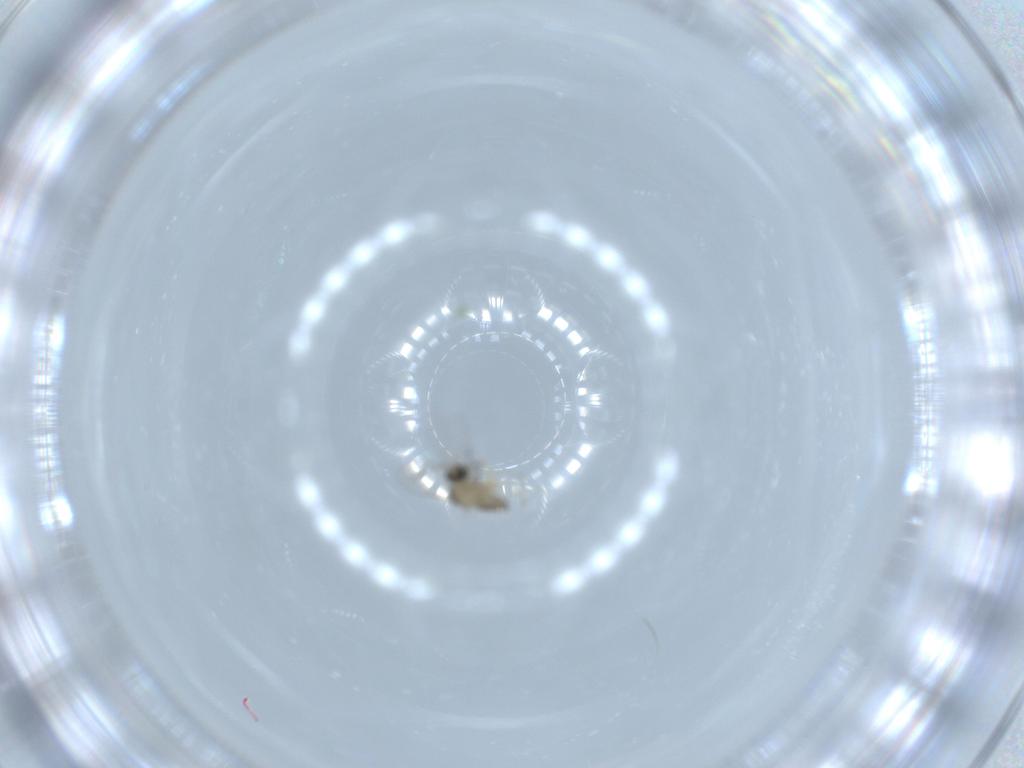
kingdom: Animalia
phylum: Arthropoda
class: Insecta
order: Diptera
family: Cecidomyiidae
